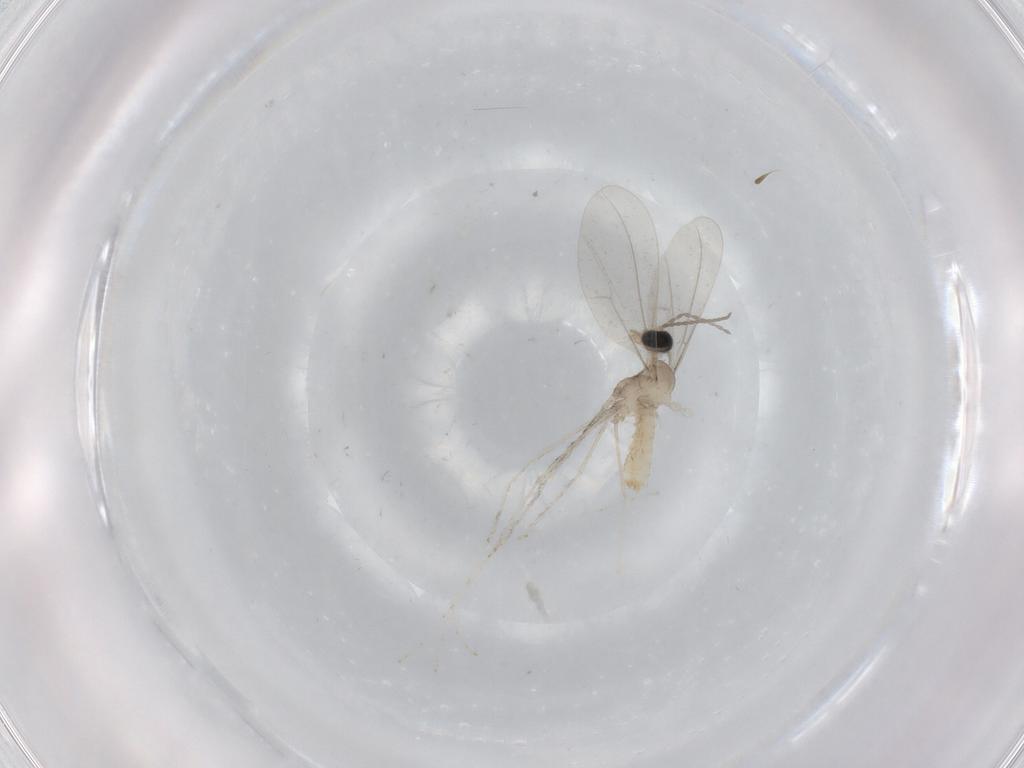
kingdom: Animalia
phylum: Arthropoda
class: Insecta
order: Diptera
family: Cecidomyiidae
